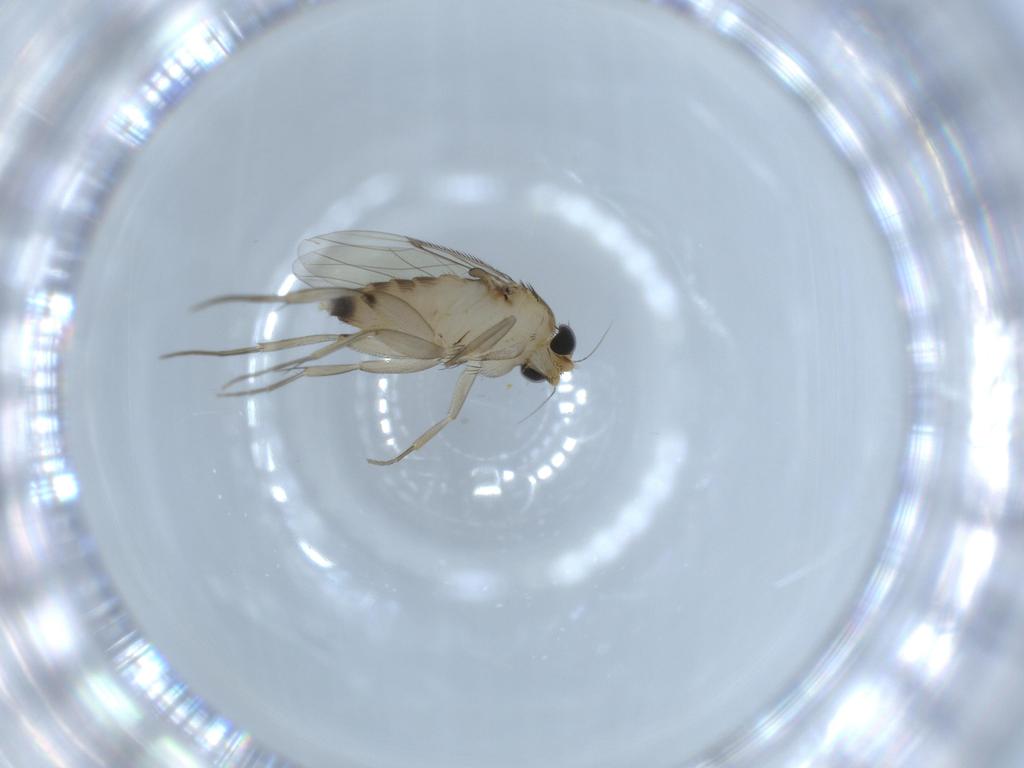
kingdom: Animalia
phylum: Arthropoda
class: Insecta
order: Diptera
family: Phoridae
